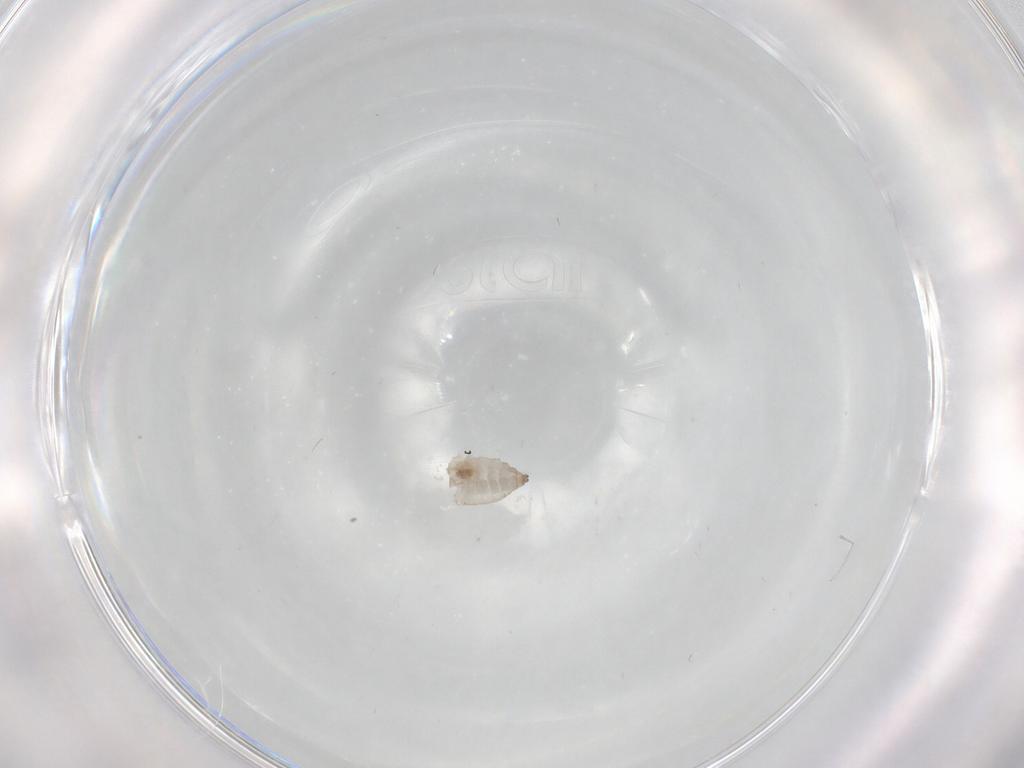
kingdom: Animalia
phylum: Arthropoda
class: Insecta
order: Diptera
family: Cecidomyiidae
